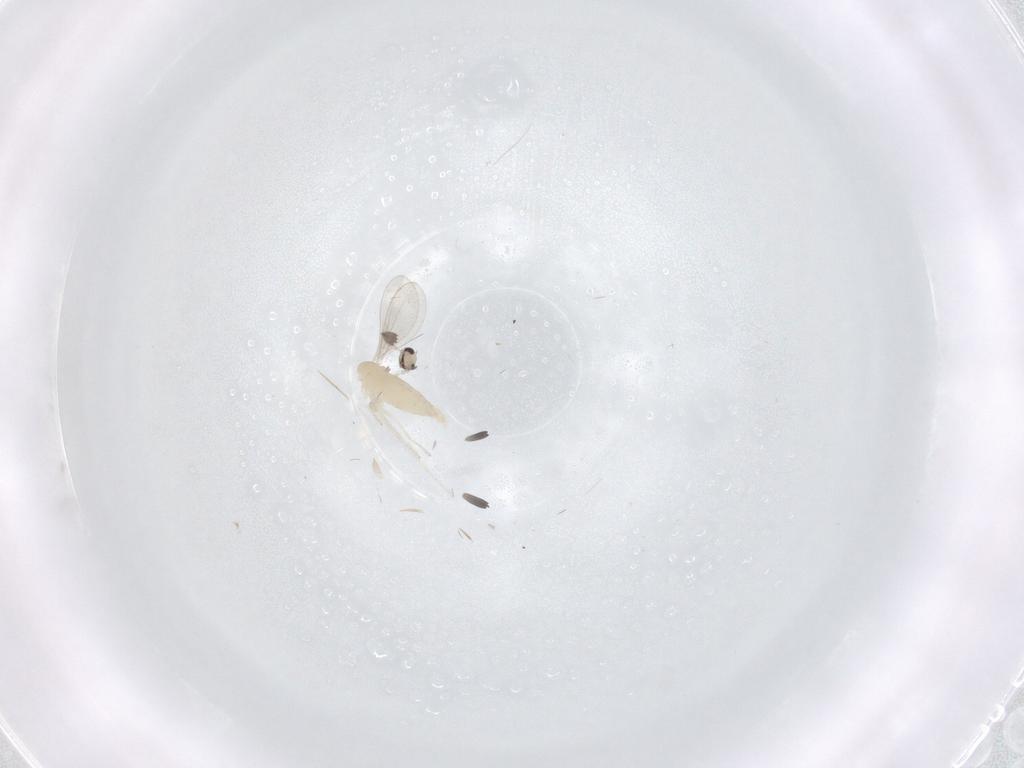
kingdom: Animalia
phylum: Arthropoda
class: Insecta
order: Diptera
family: Cecidomyiidae
